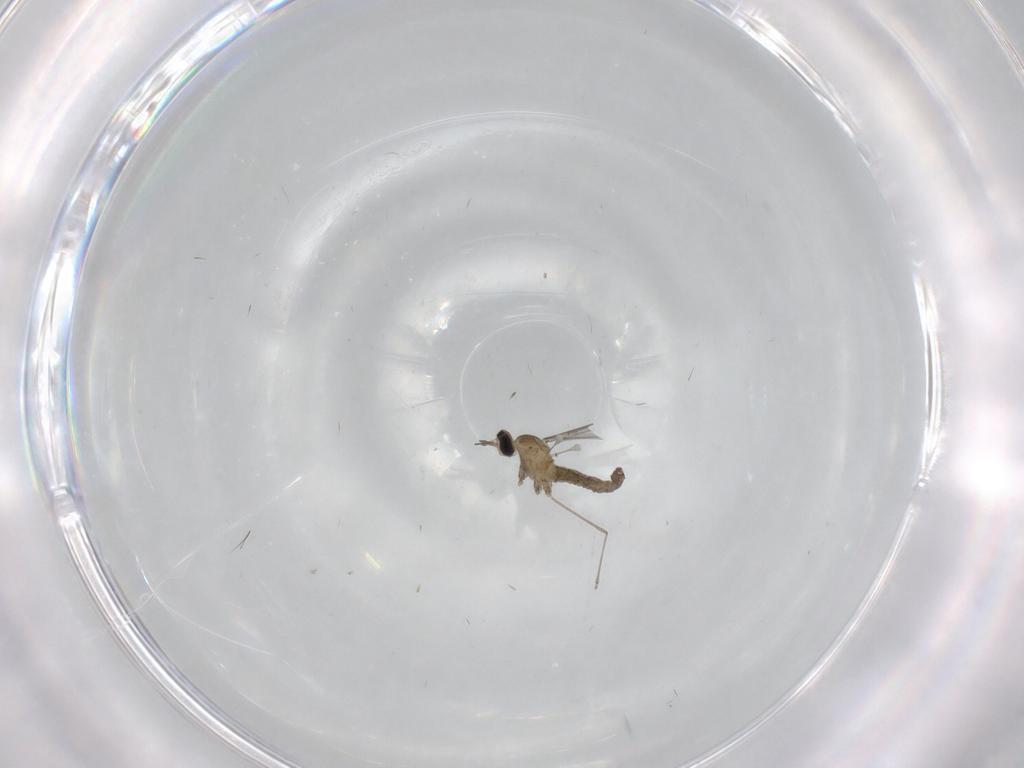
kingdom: Animalia
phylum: Arthropoda
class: Insecta
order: Diptera
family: Cecidomyiidae
